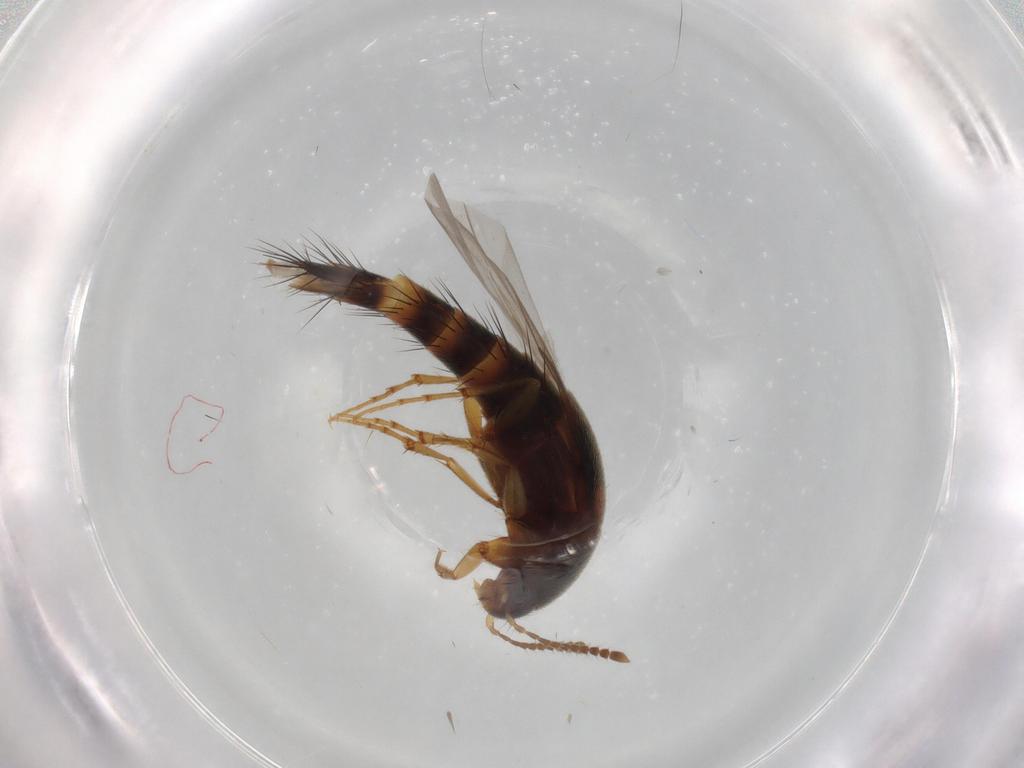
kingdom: Animalia
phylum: Arthropoda
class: Insecta
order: Coleoptera
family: Staphylinidae
